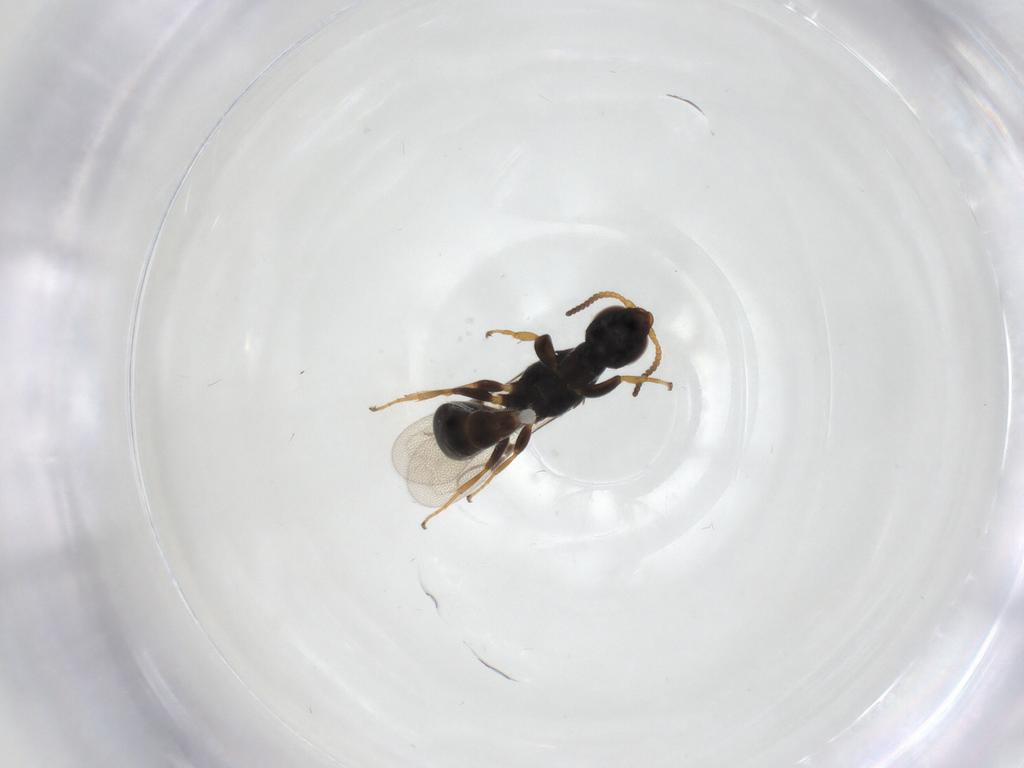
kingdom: Animalia
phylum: Arthropoda
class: Insecta
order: Hymenoptera
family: Bethylidae
